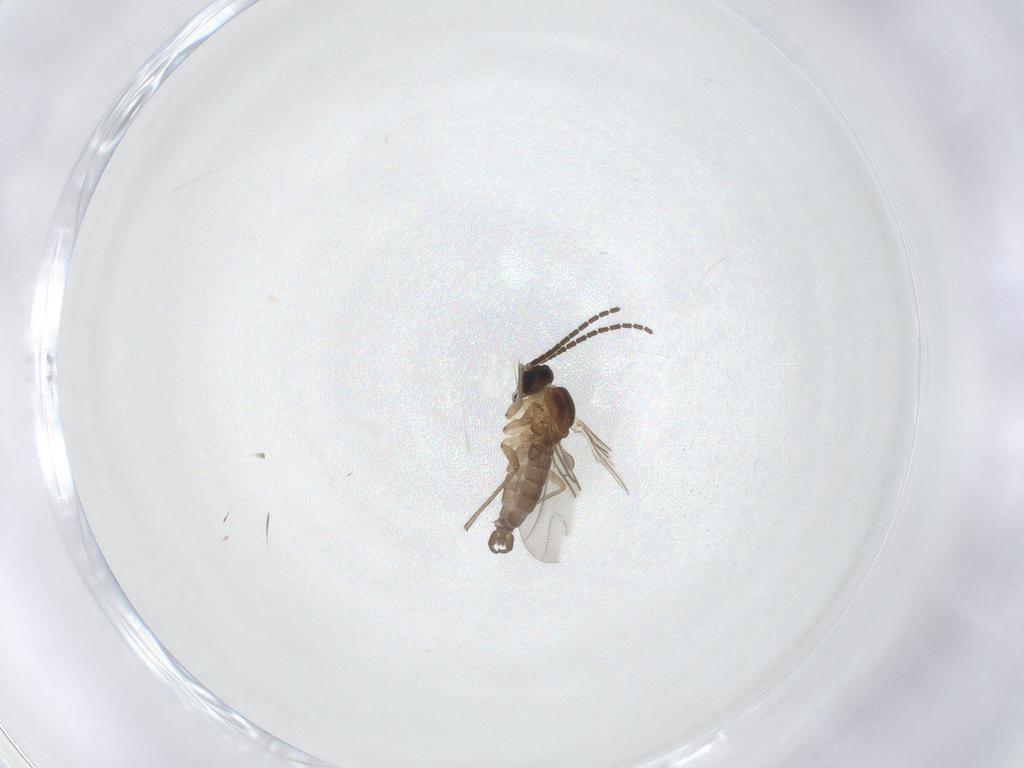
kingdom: Animalia
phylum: Arthropoda
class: Insecta
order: Diptera
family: Sciaridae
